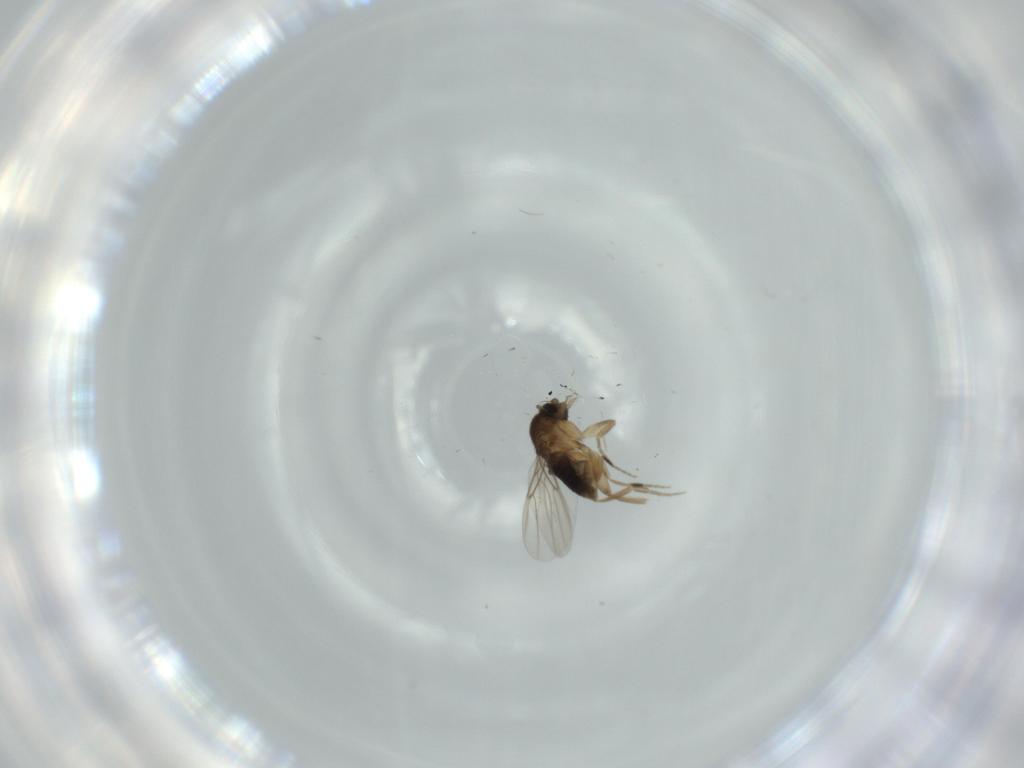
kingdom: Animalia
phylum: Arthropoda
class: Insecta
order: Diptera
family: Phoridae
